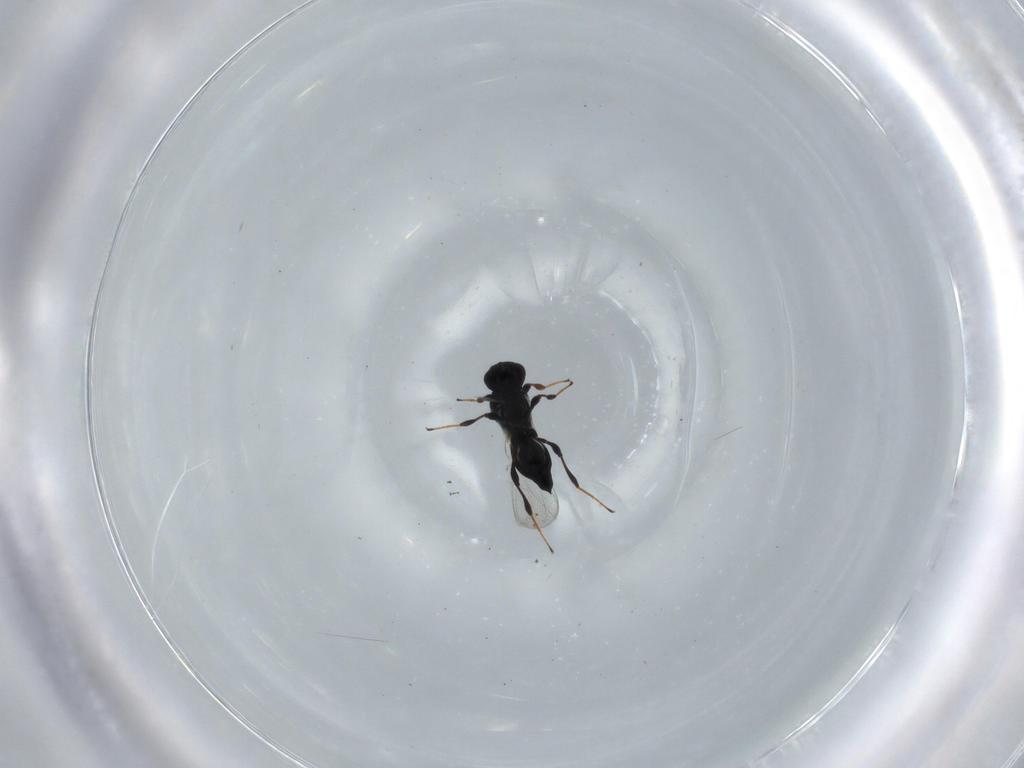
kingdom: Animalia
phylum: Arthropoda
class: Insecta
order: Hymenoptera
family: Platygastridae
